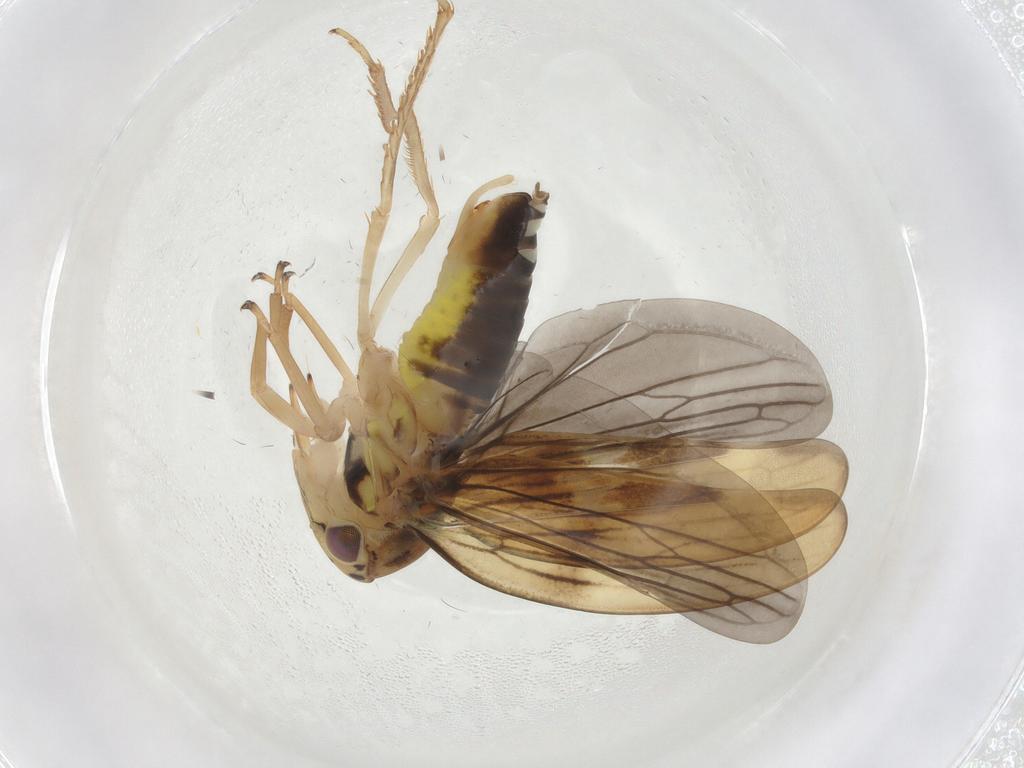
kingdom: Animalia
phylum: Arthropoda
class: Insecta
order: Hemiptera
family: Cicadellidae
